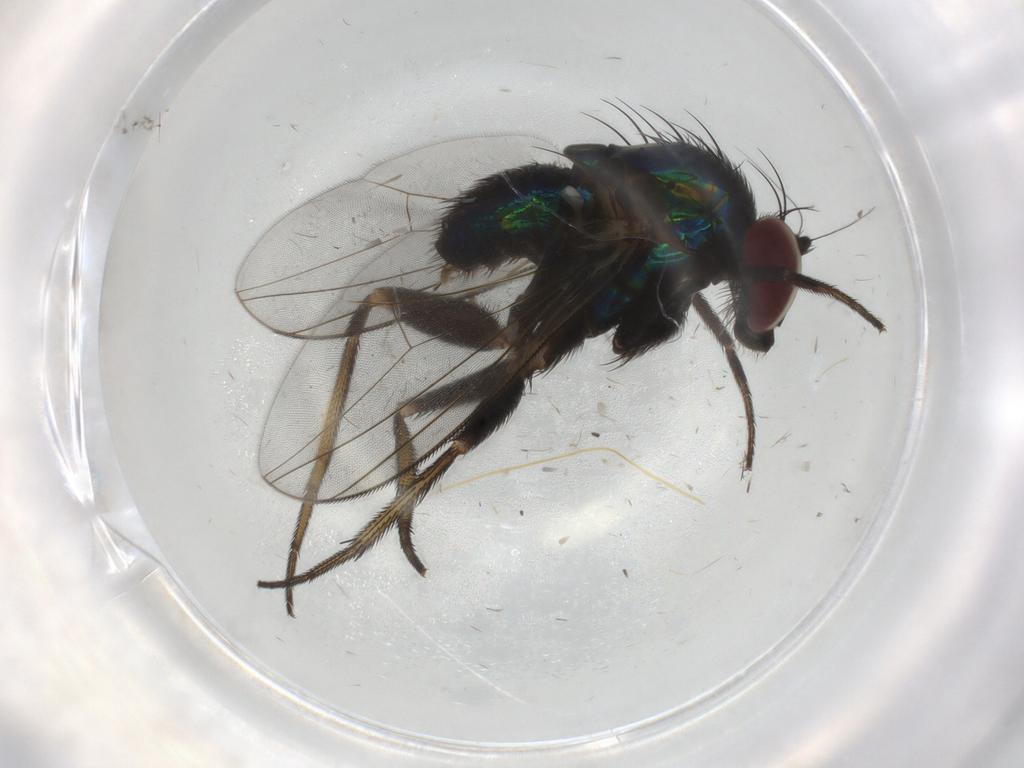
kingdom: Animalia
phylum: Arthropoda
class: Insecta
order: Diptera
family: Dolichopodidae
